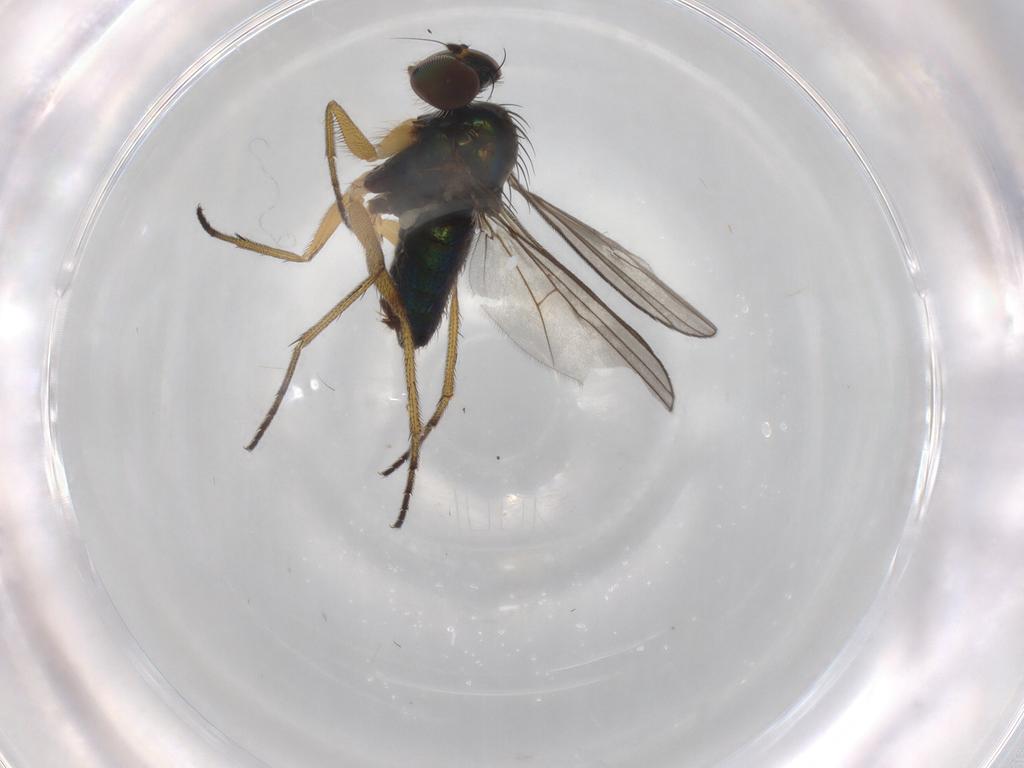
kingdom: Animalia
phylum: Arthropoda
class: Insecta
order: Diptera
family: Dolichopodidae
